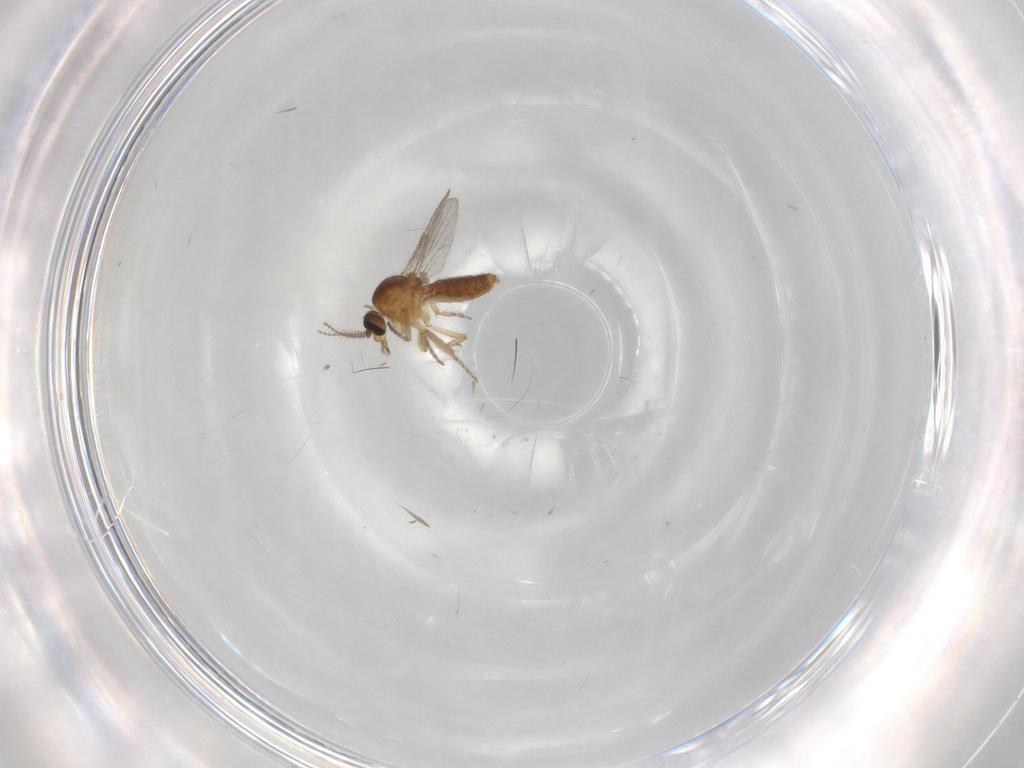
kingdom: Animalia
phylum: Arthropoda
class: Insecta
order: Diptera
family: Ceratopogonidae
